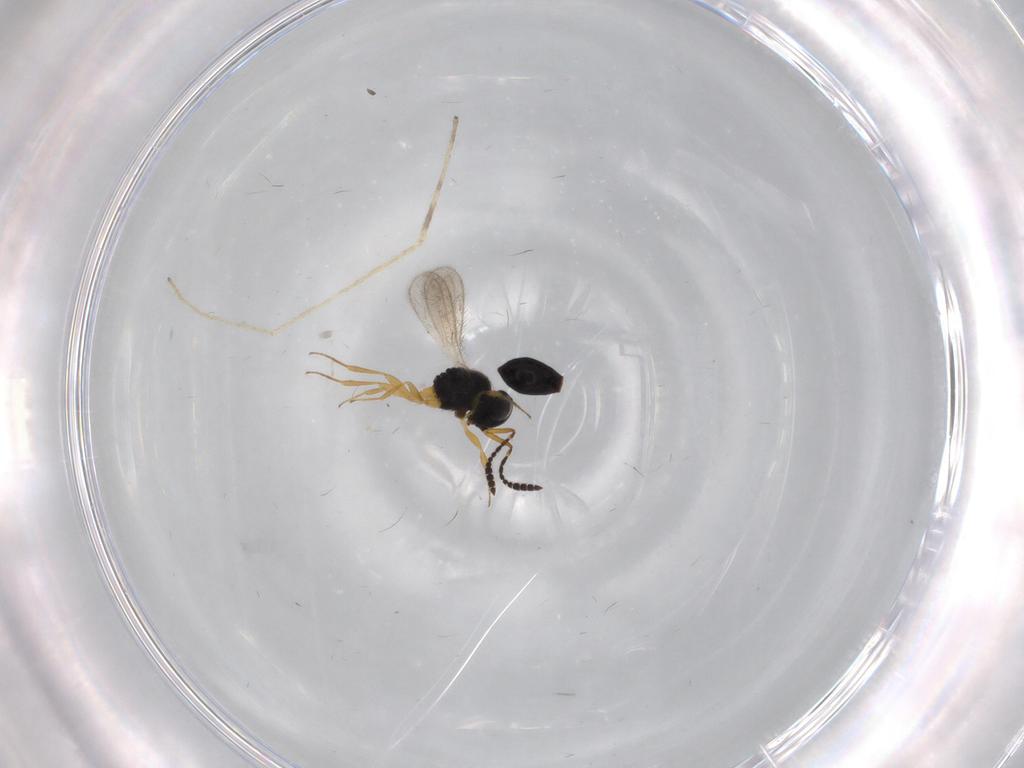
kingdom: Animalia
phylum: Arthropoda
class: Insecta
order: Hymenoptera
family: Scelionidae
